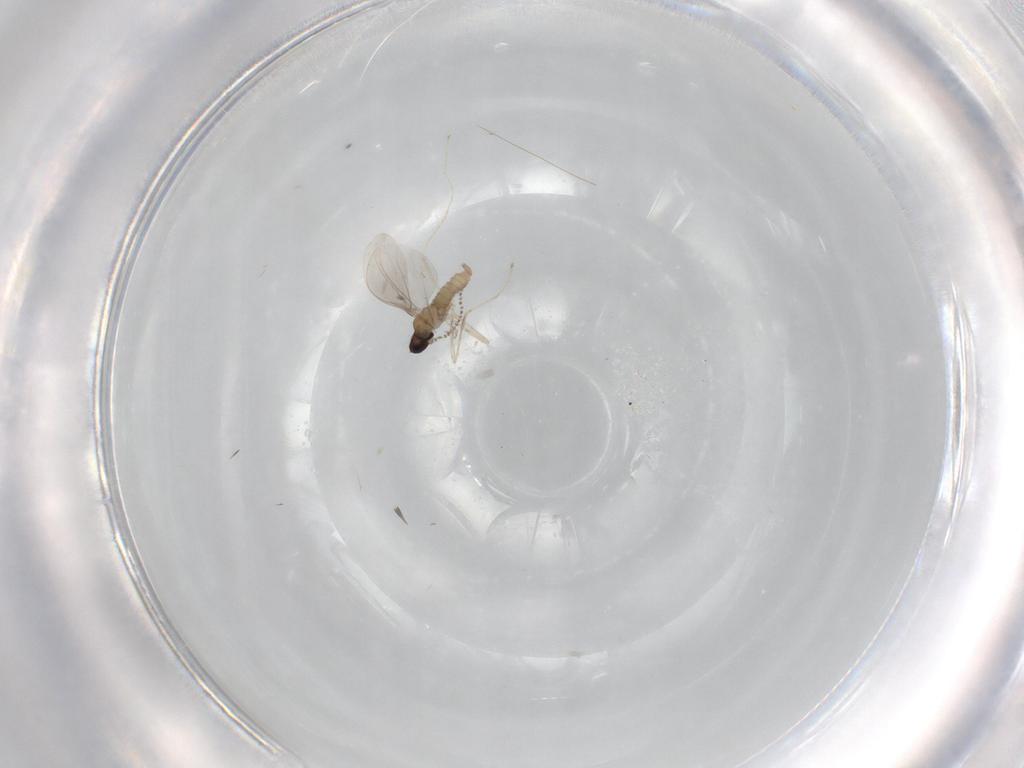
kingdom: Animalia
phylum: Arthropoda
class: Insecta
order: Diptera
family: Cecidomyiidae
